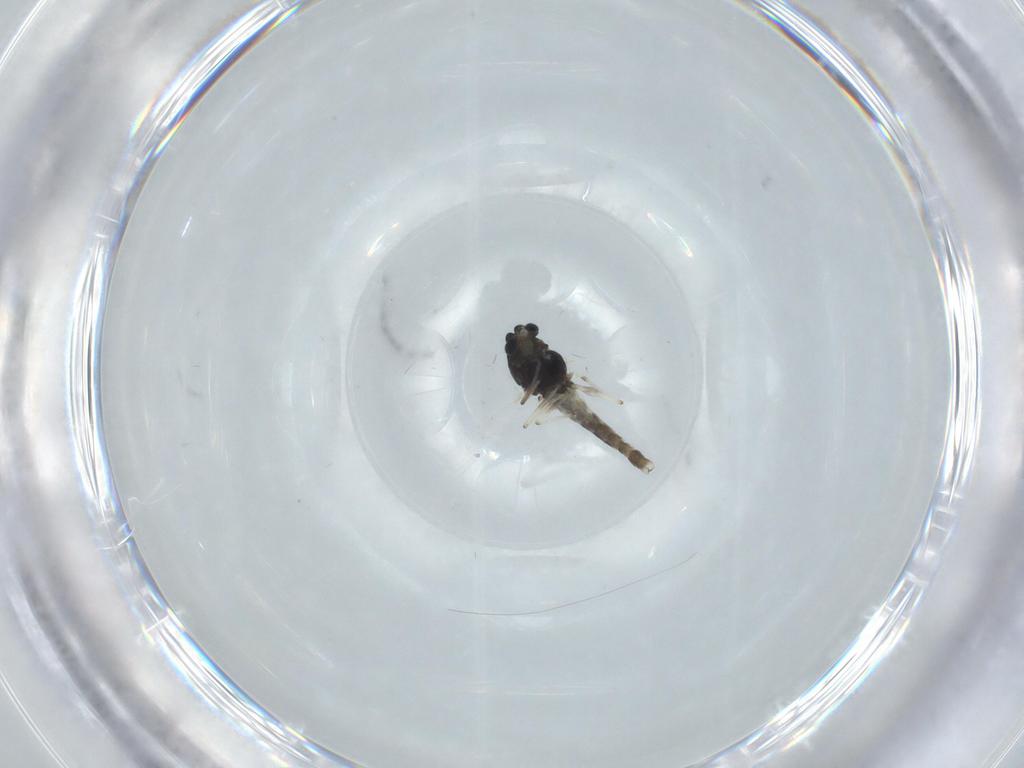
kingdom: Animalia
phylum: Arthropoda
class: Insecta
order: Diptera
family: Chironomidae
